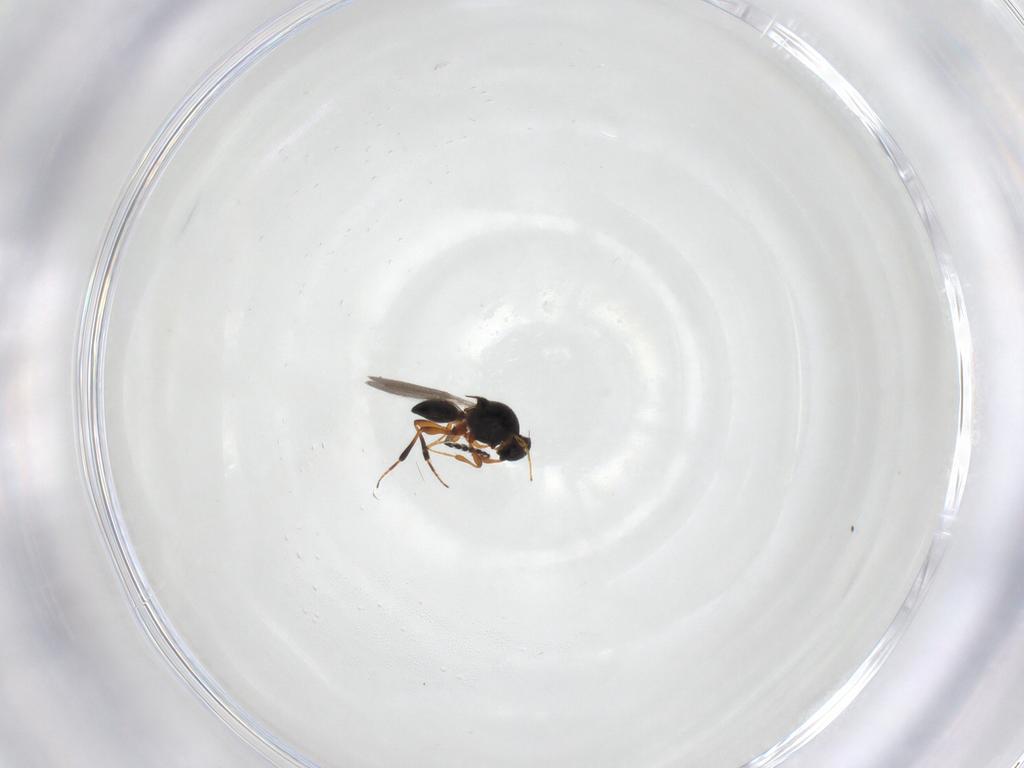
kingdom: Animalia
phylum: Arthropoda
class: Insecta
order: Hymenoptera
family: Platygastridae
